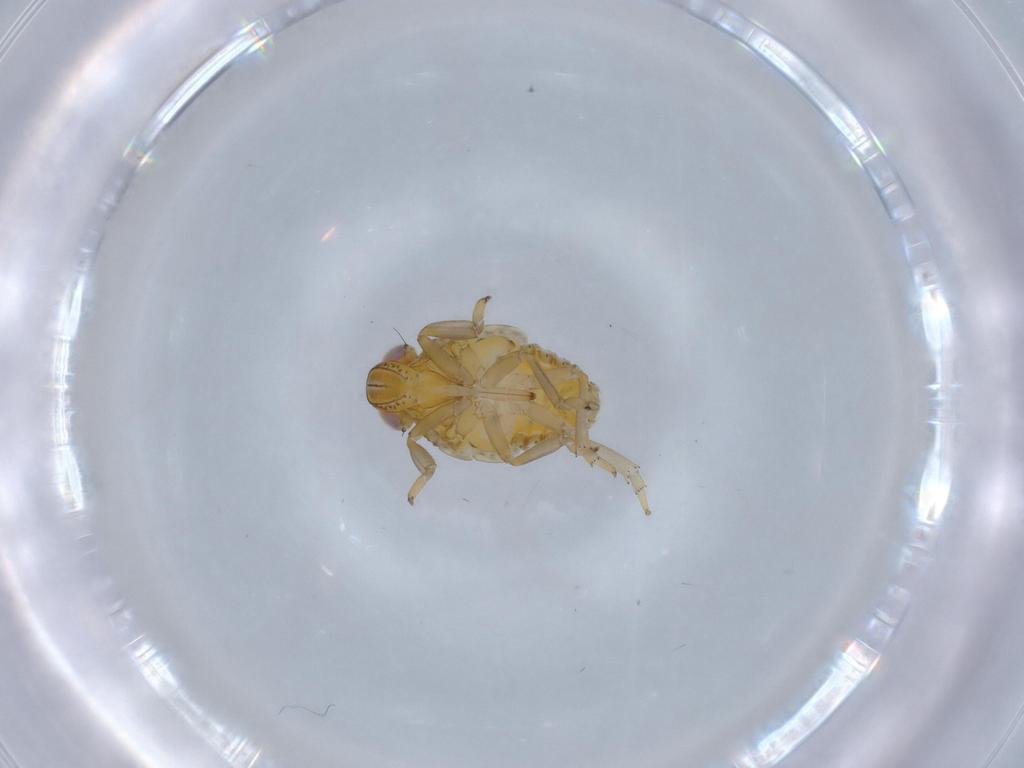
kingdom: Animalia
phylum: Arthropoda
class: Insecta
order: Hemiptera
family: Issidae
